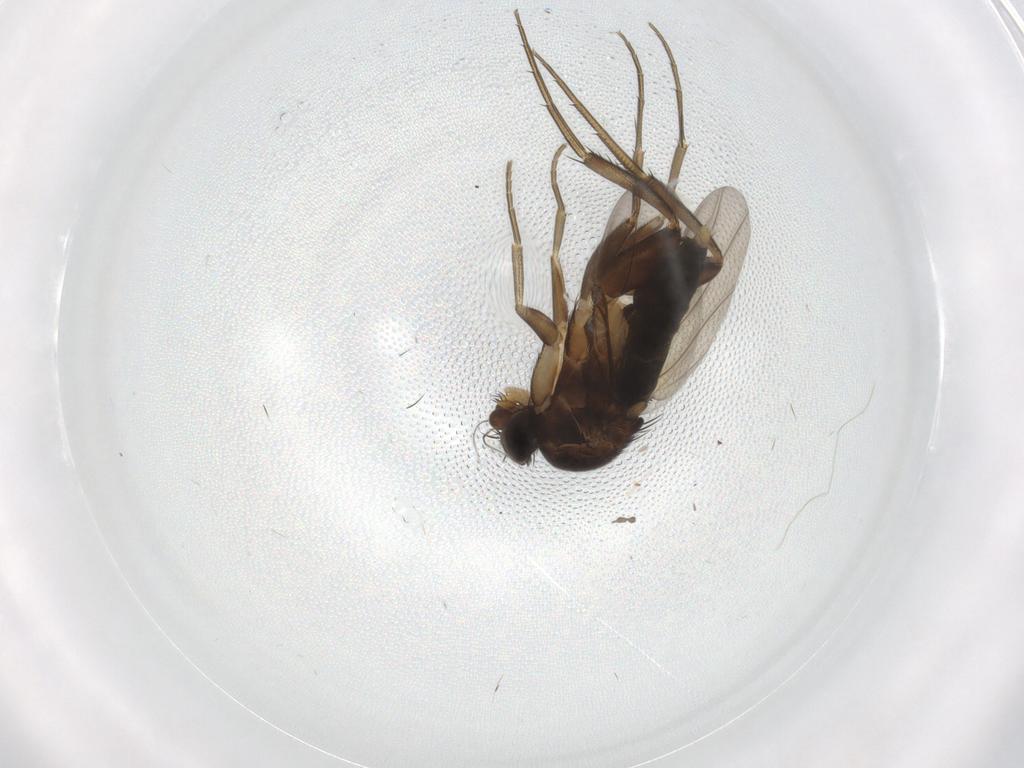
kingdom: Animalia
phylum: Arthropoda
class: Insecta
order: Diptera
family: Phoridae
